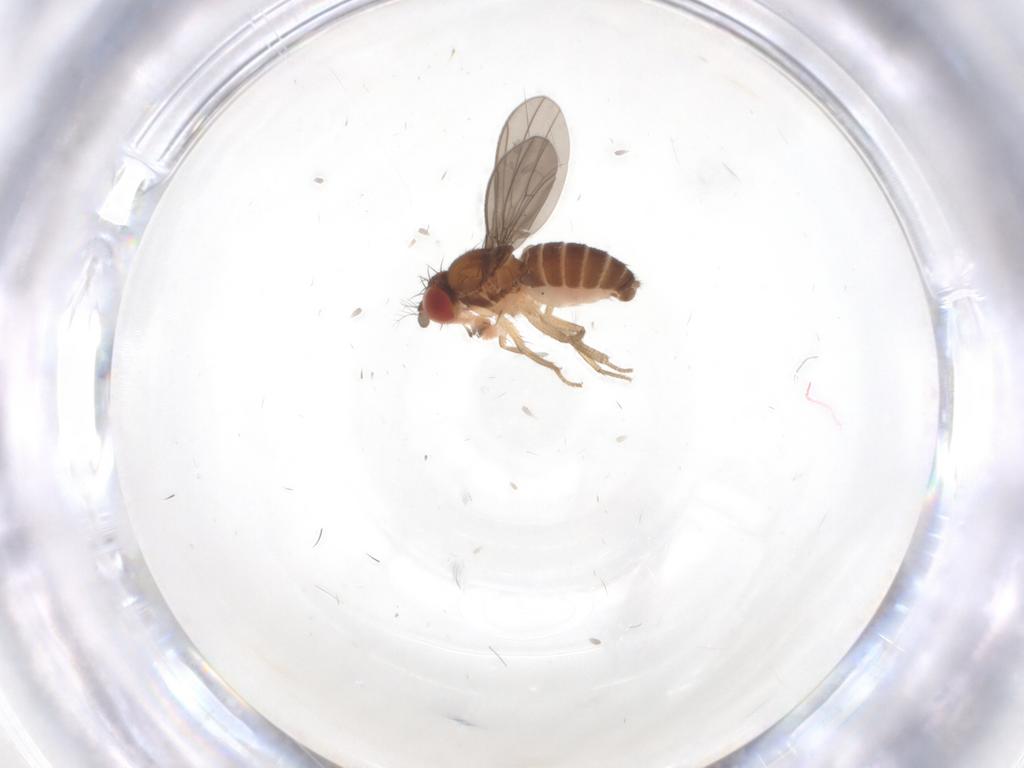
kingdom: Animalia
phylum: Arthropoda
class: Insecta
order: Diptera
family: Drosophilidae
